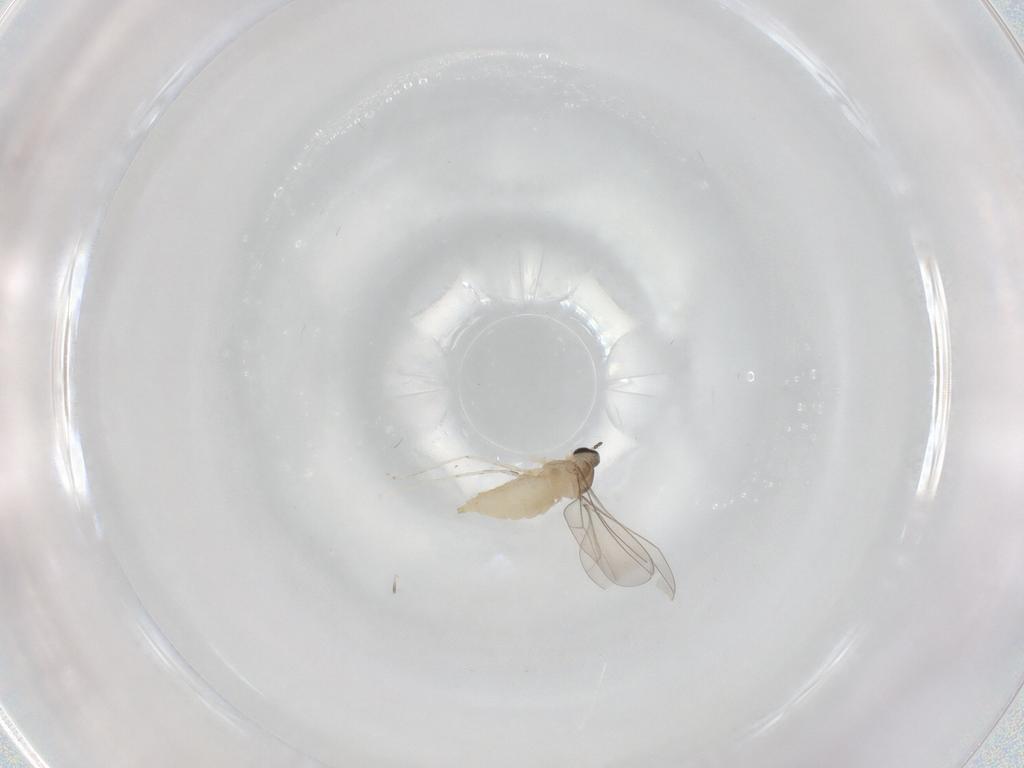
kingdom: Animalia
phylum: Arthropoda
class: Insecta
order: Diptera
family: Cecidomyiidae
